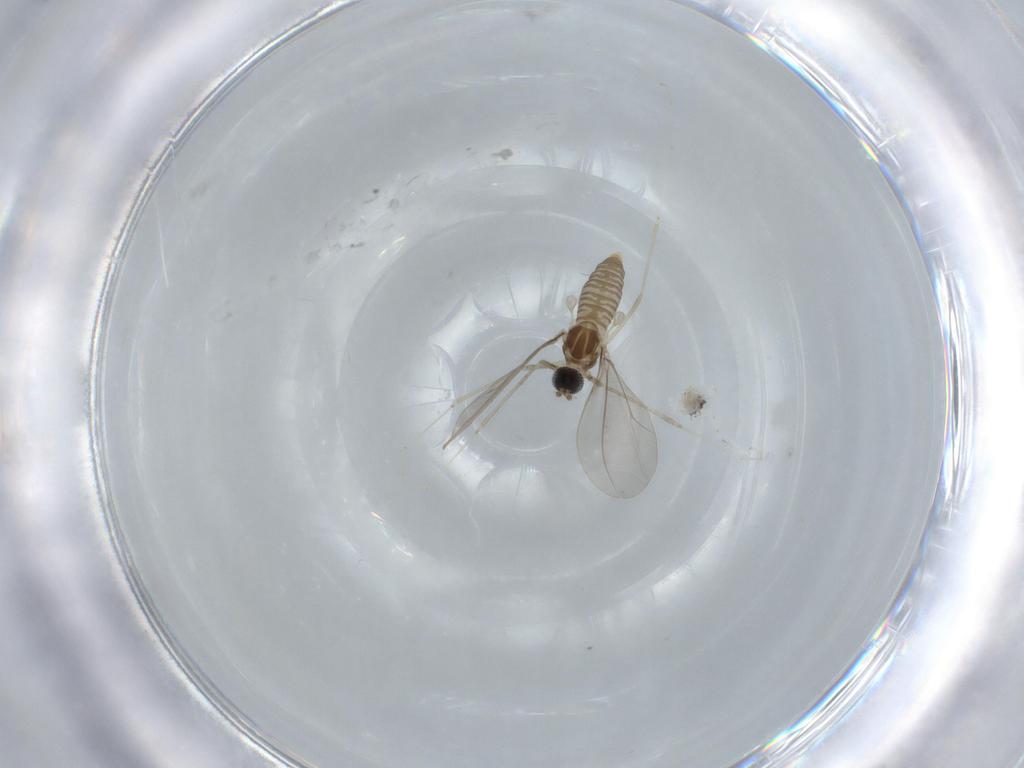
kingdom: Animalia
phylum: Arthropoda
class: Insecta
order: Diptera
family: Cecidomyiidae
